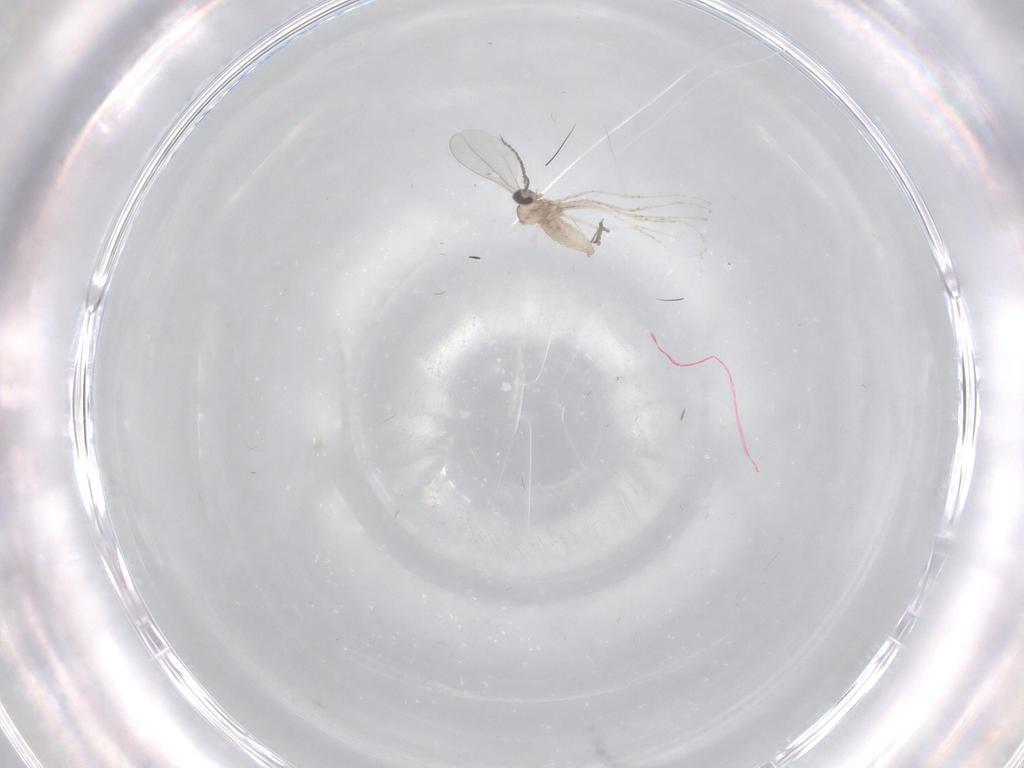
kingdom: Animalia
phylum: Arthropoda
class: Insecta
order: Diptera
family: Cecidomyiidae
